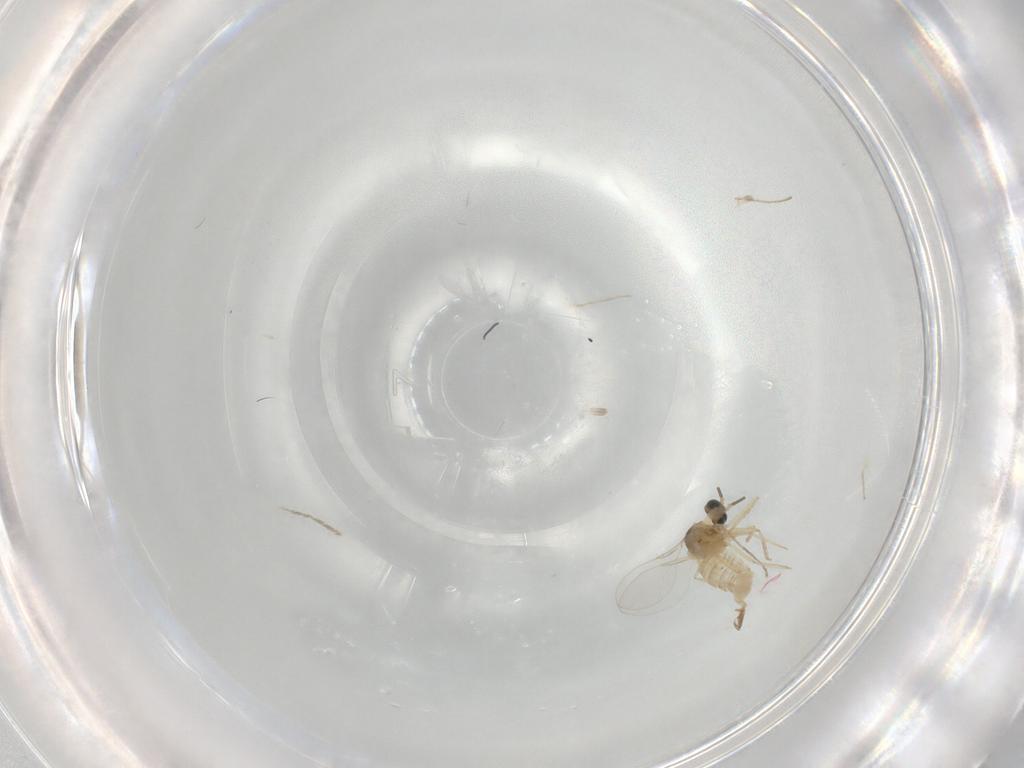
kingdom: Animalia
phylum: Arthropoda
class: Insecta
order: Diptera
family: Cecidomyiidae
